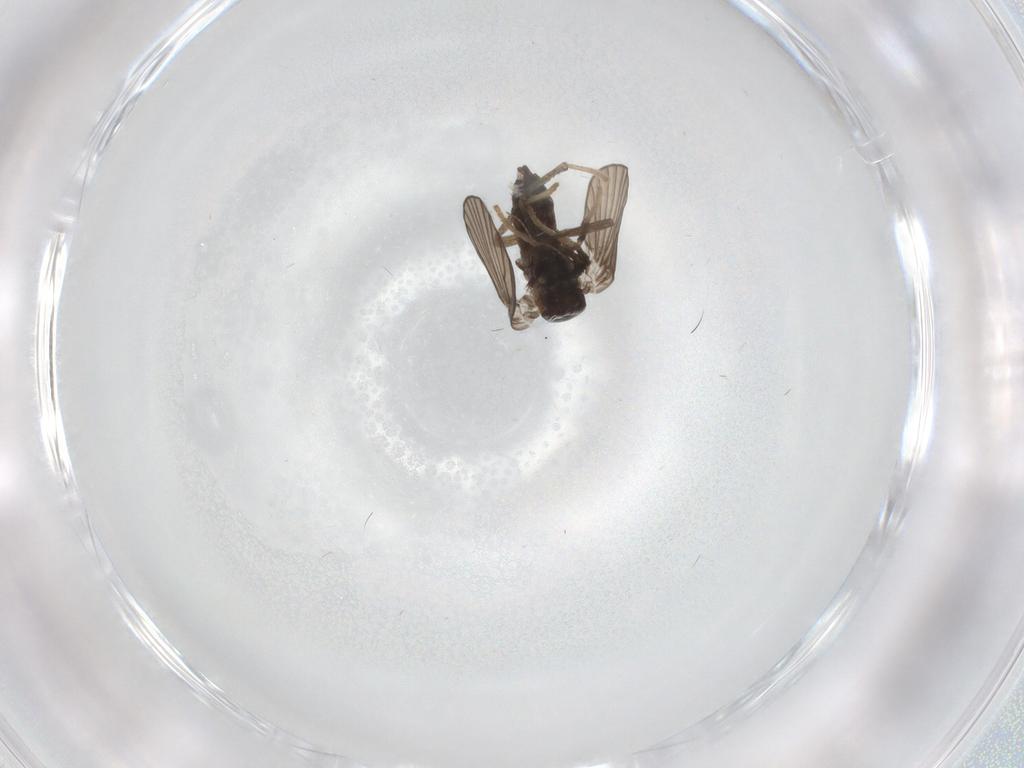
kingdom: Animalia
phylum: Arthropoda
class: Insecta
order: Diptera
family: Psychodidae
